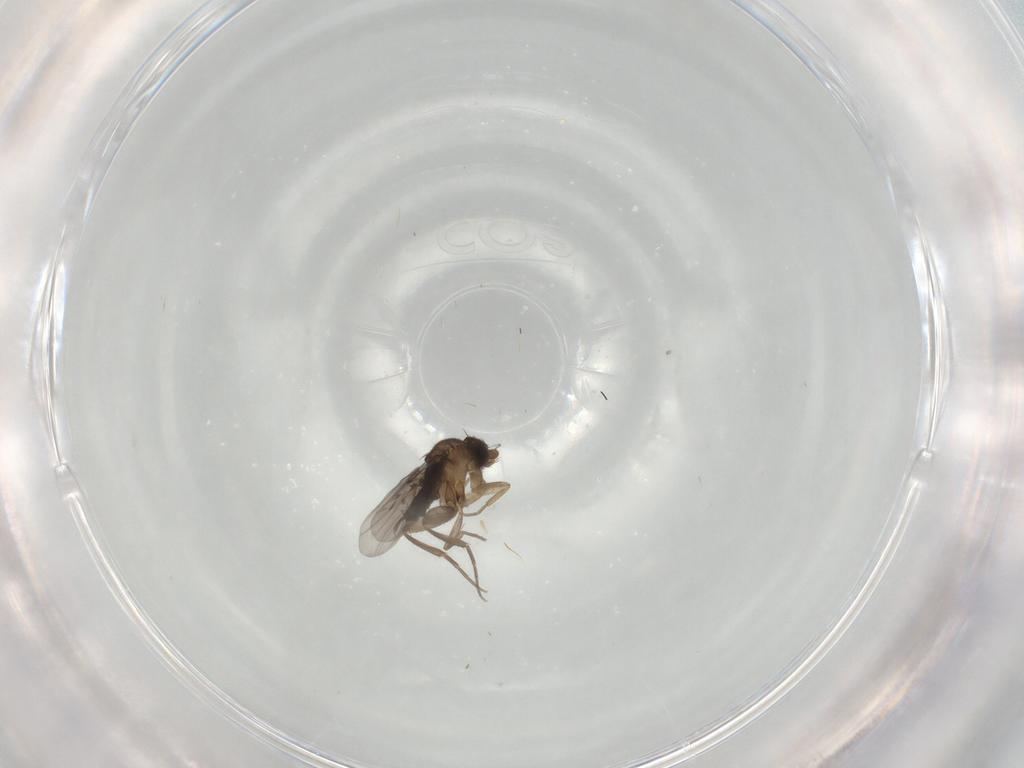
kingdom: Animalia
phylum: Arthropoda
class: Insecta
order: Diptera
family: Phoridae
